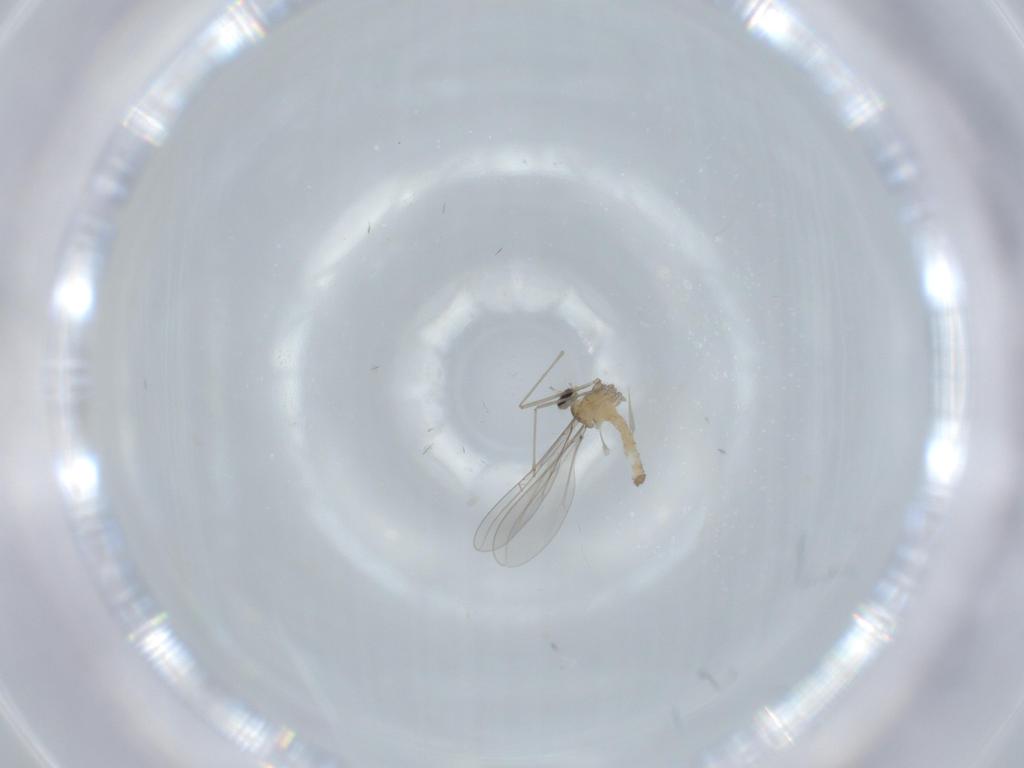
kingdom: Animalia
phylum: Arthropoda
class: Insecta
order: Diptera
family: Cecidomyiidae
